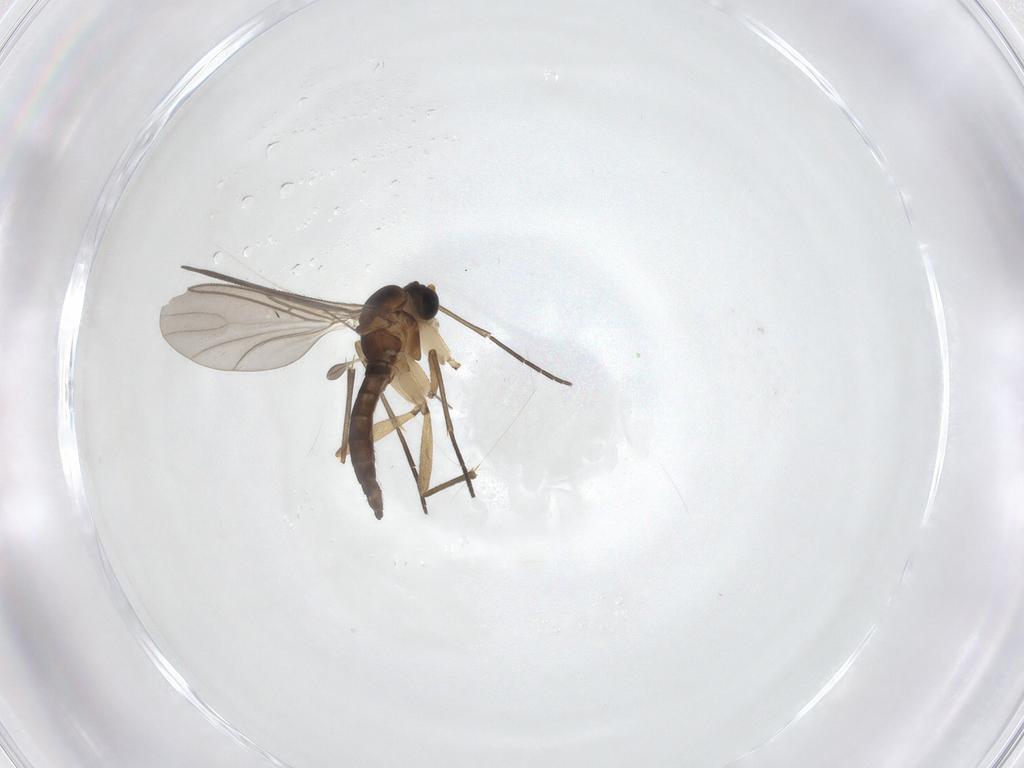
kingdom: Animalia
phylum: Arthropoda
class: Insecta
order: Diptera
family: Sciaridae
